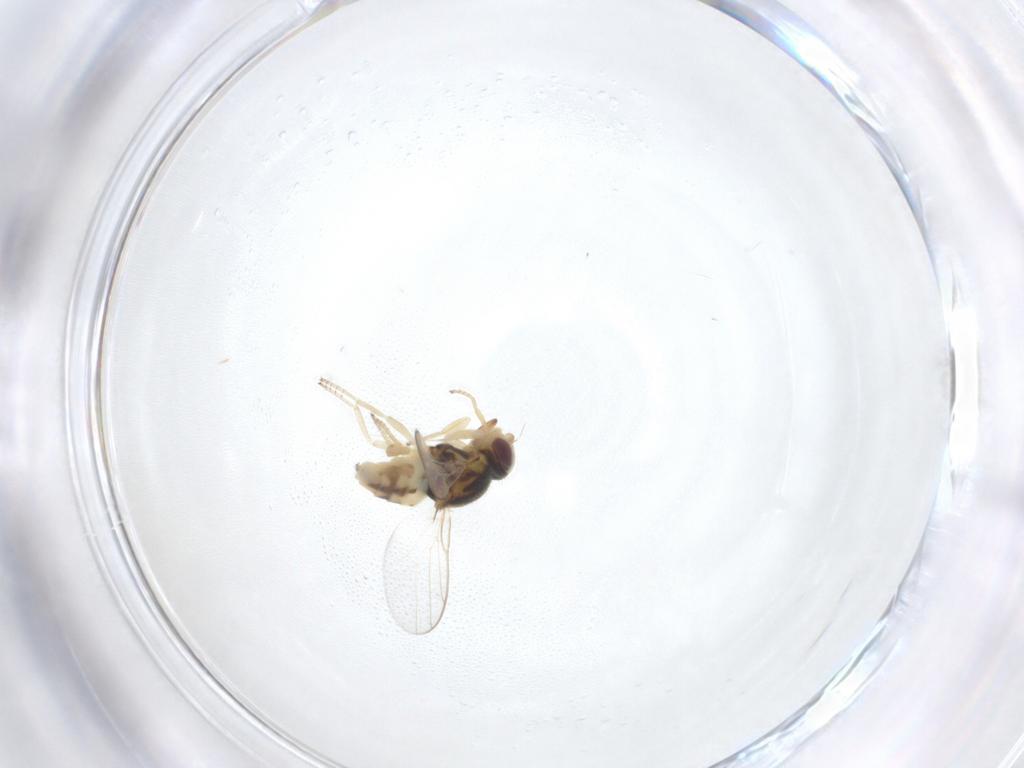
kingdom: Animalia
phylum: Arthropoda
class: Insecta
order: Diptera
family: Chloropidae
